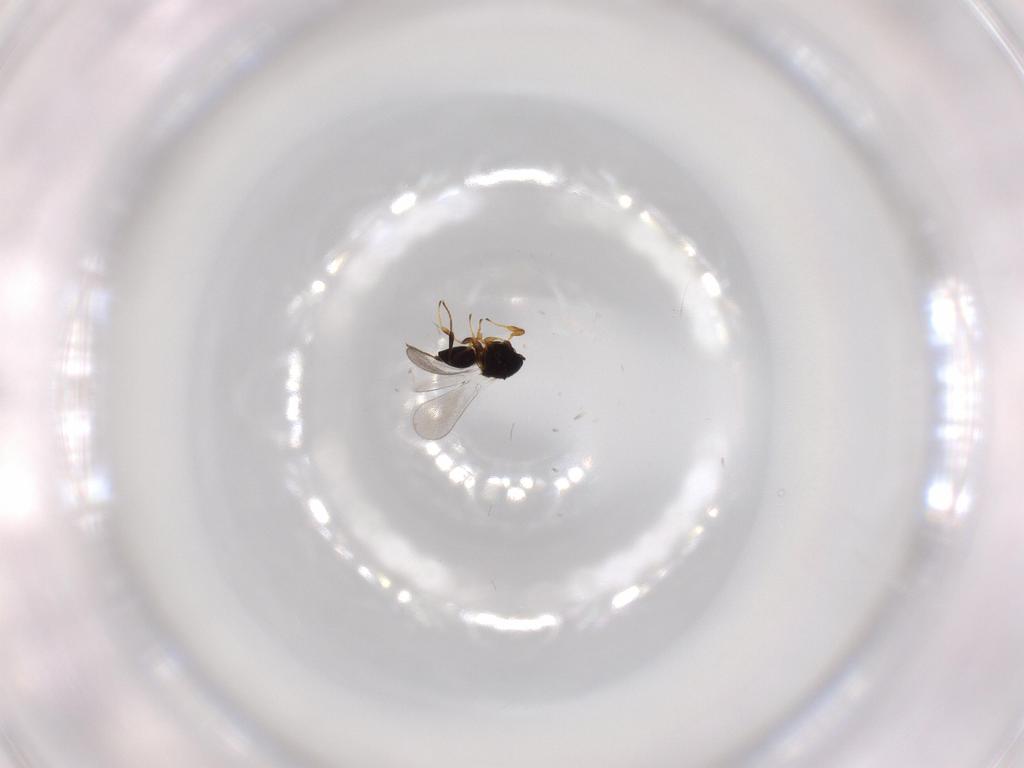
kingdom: Animalia
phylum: Arthropoda
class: Insecta
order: Hymenoptera
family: Platygastridae
